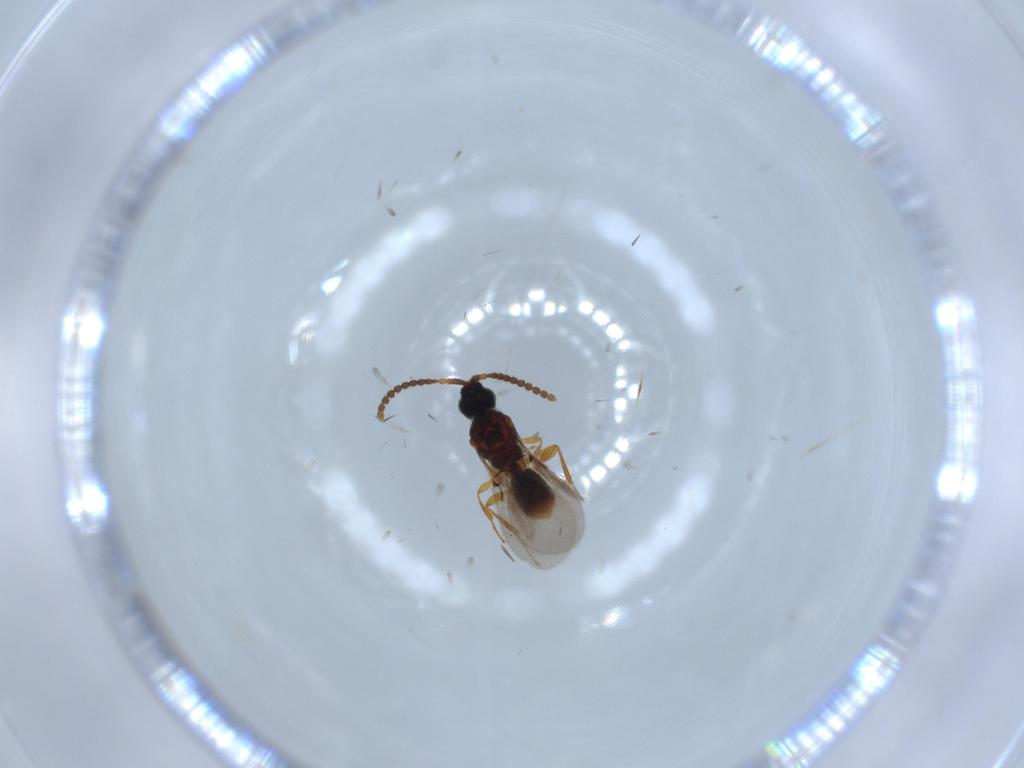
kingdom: Animalia
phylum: Arthropoda
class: Insecta
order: Hymenoptera
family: Diapriidae
